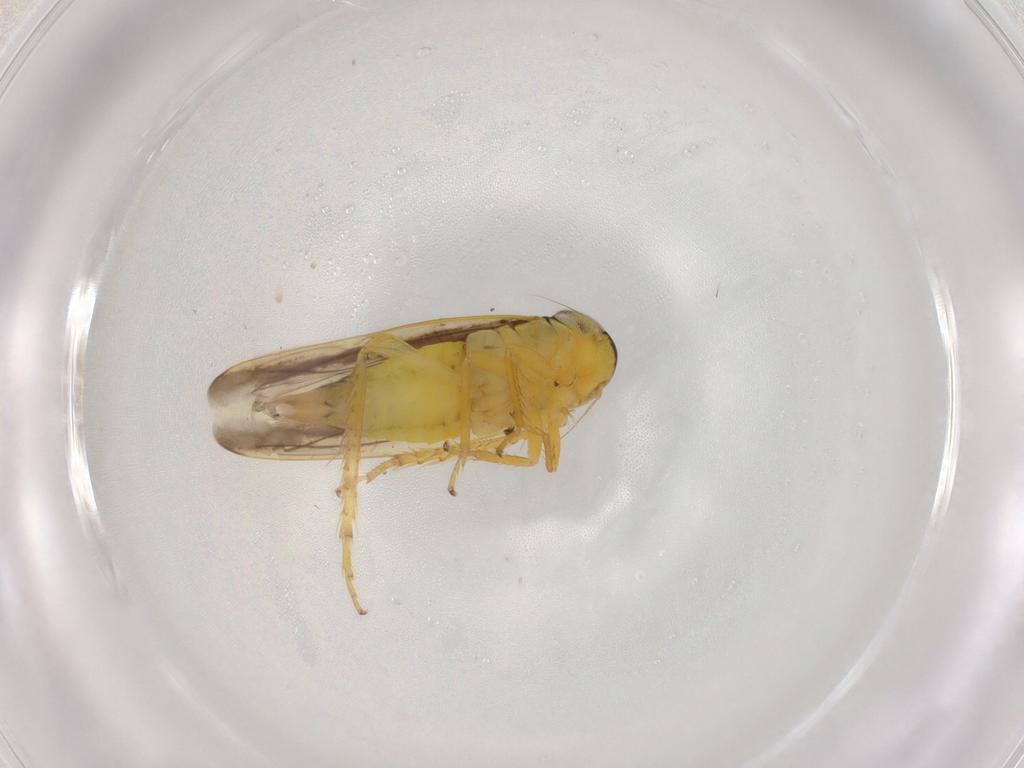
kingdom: Animalia
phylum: Arthropoda
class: Insecta
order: Hemiptera
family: Cicadellidae
